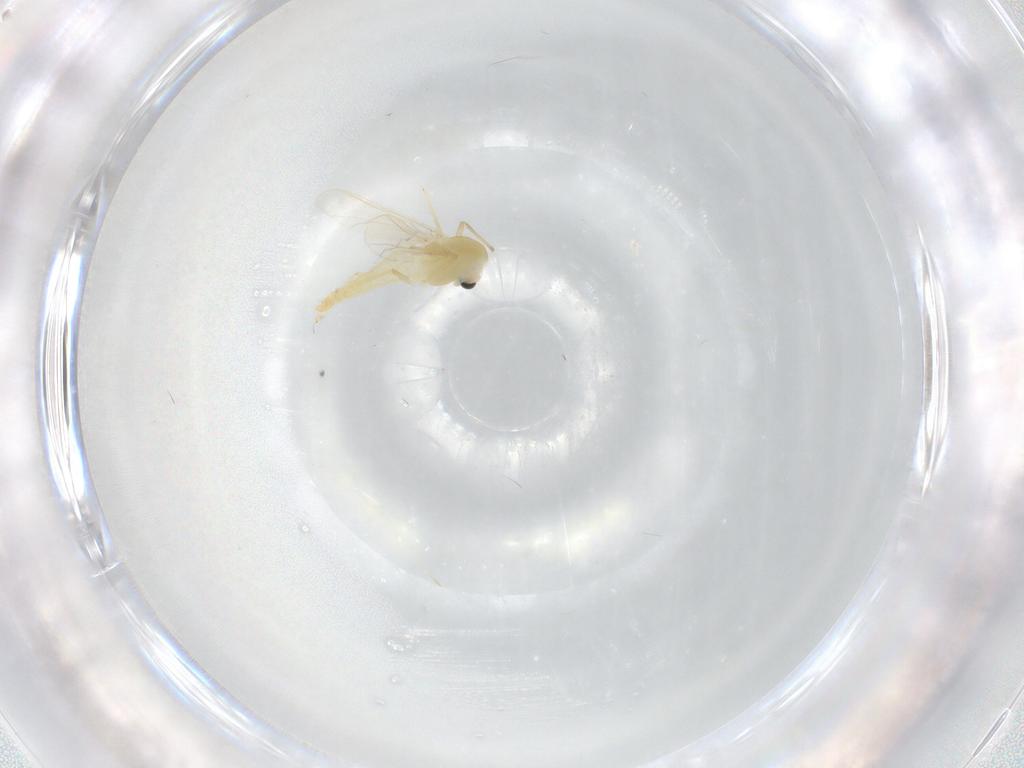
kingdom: Animalia
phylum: Arthropoda
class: Insecta
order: Diptera
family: Chironomidae
